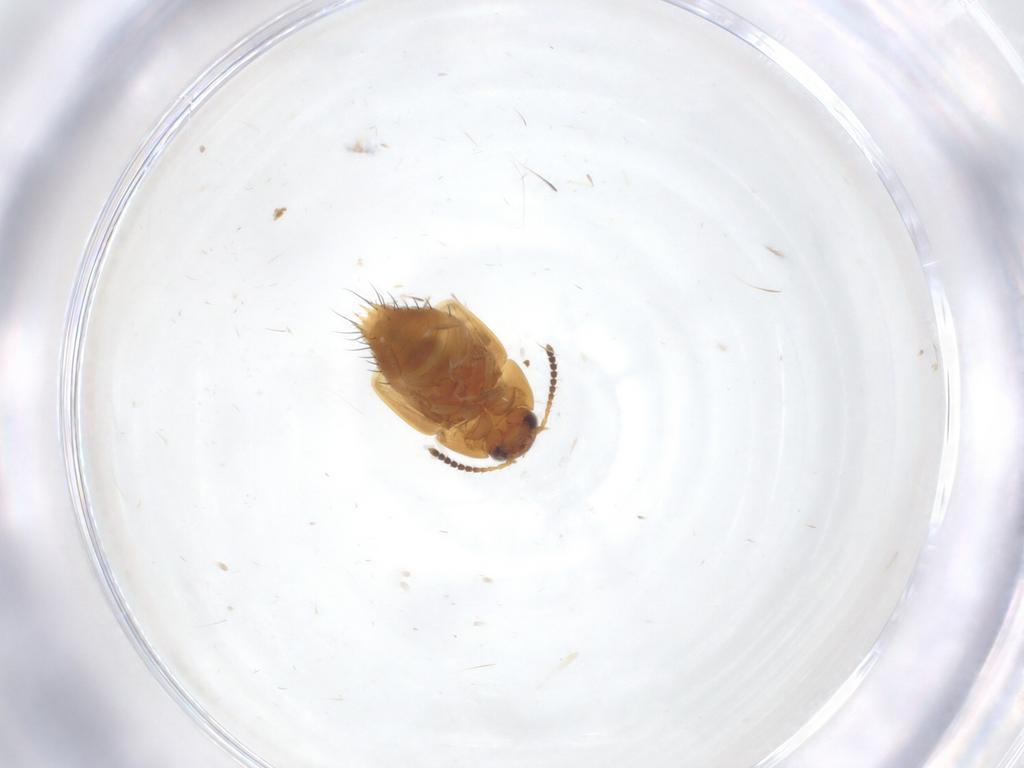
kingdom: Animalia
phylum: Arthropoda
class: Insecta
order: Coleoptera
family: Staphylinidae
